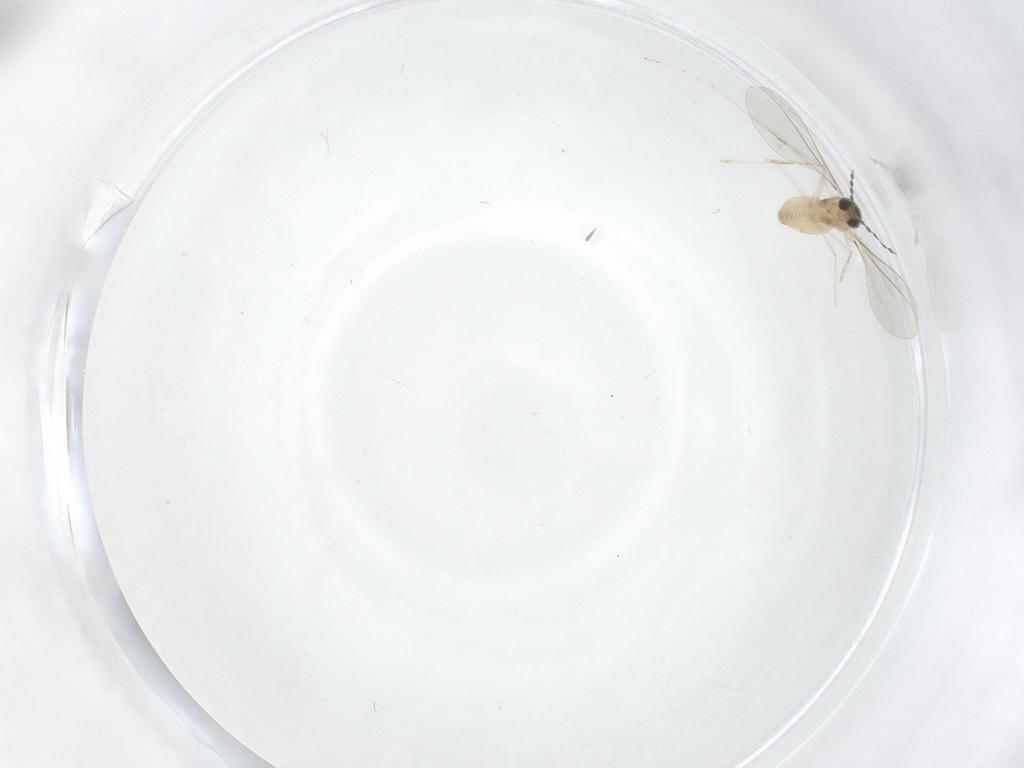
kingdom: Animalia
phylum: Arthropoda
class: Insecta
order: Diptera
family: Cecidomyiidae
